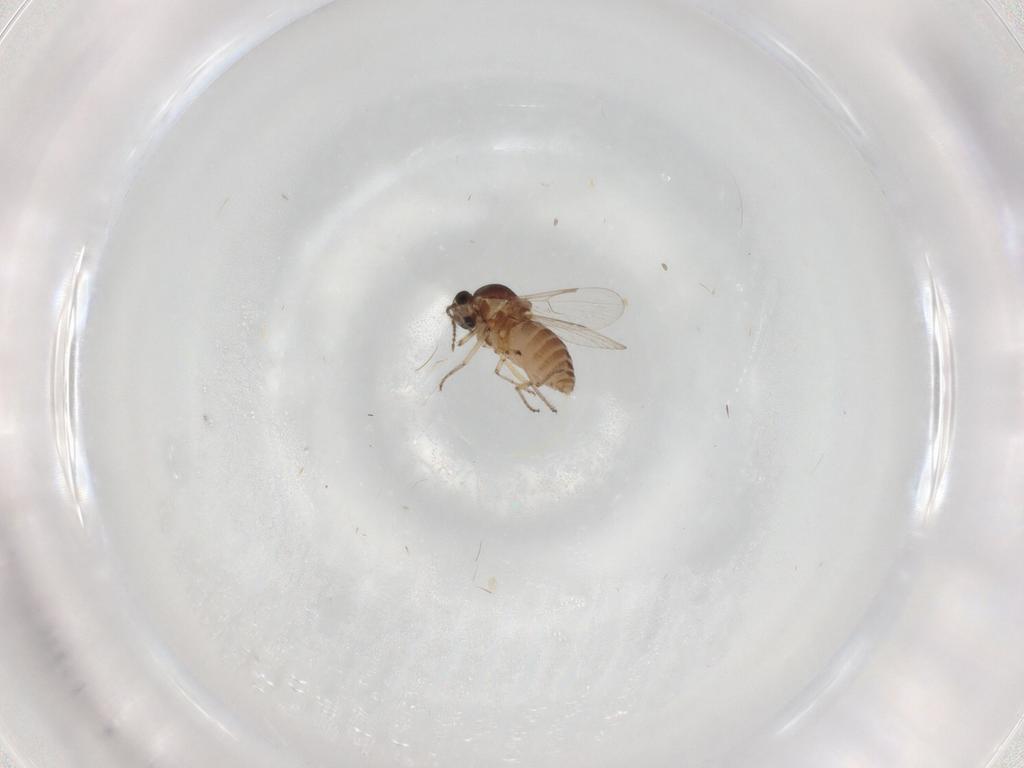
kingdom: Animalia
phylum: Arthropoda
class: Insecta
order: Diptera
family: Ceratopogonidae
